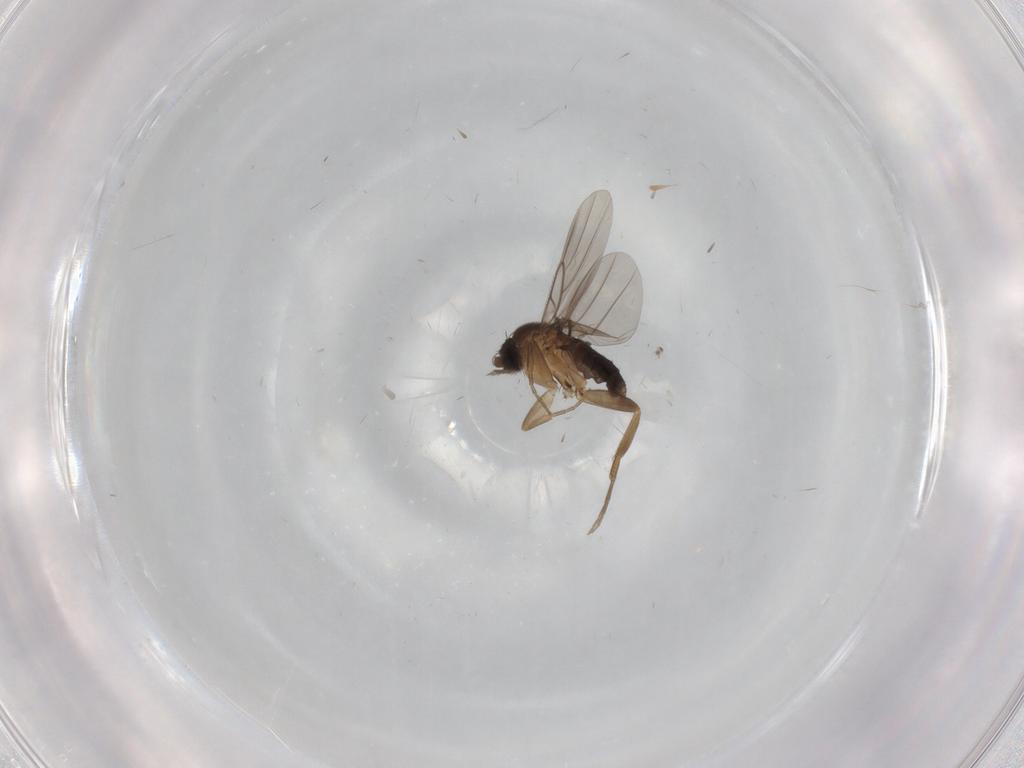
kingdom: Animalia
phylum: Arthropoda
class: Insecta
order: Diptera
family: Cecidomyiidae
